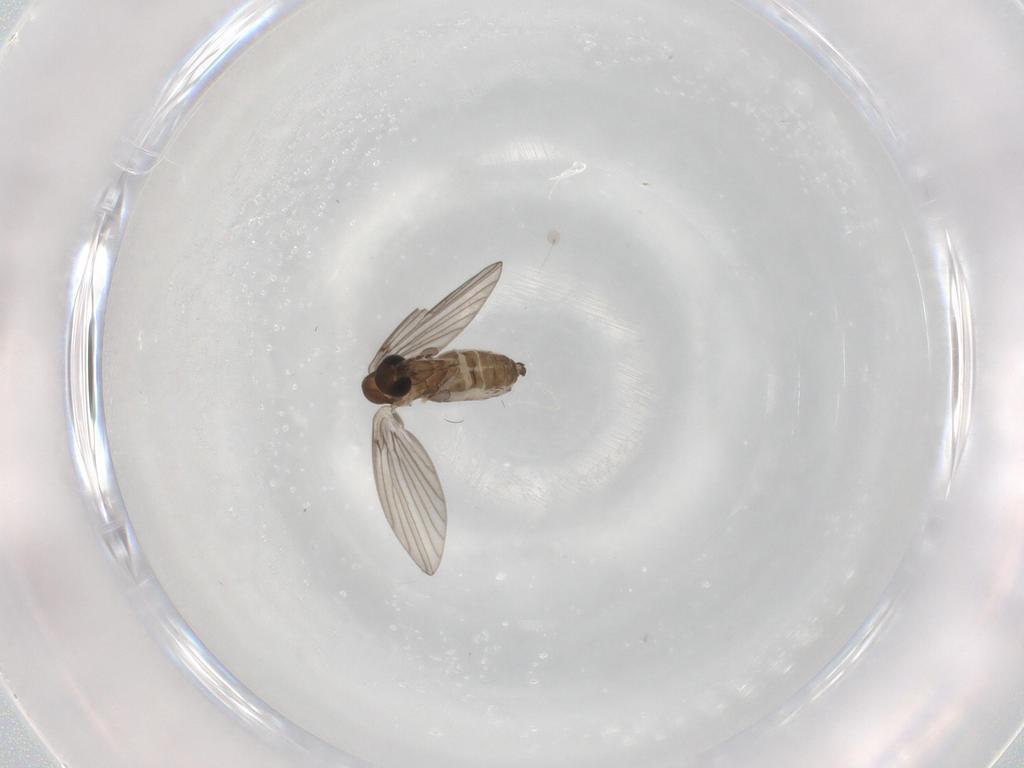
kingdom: Animalia
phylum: Arthropoda
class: Insecta
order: Diptera
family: Psychodidae
